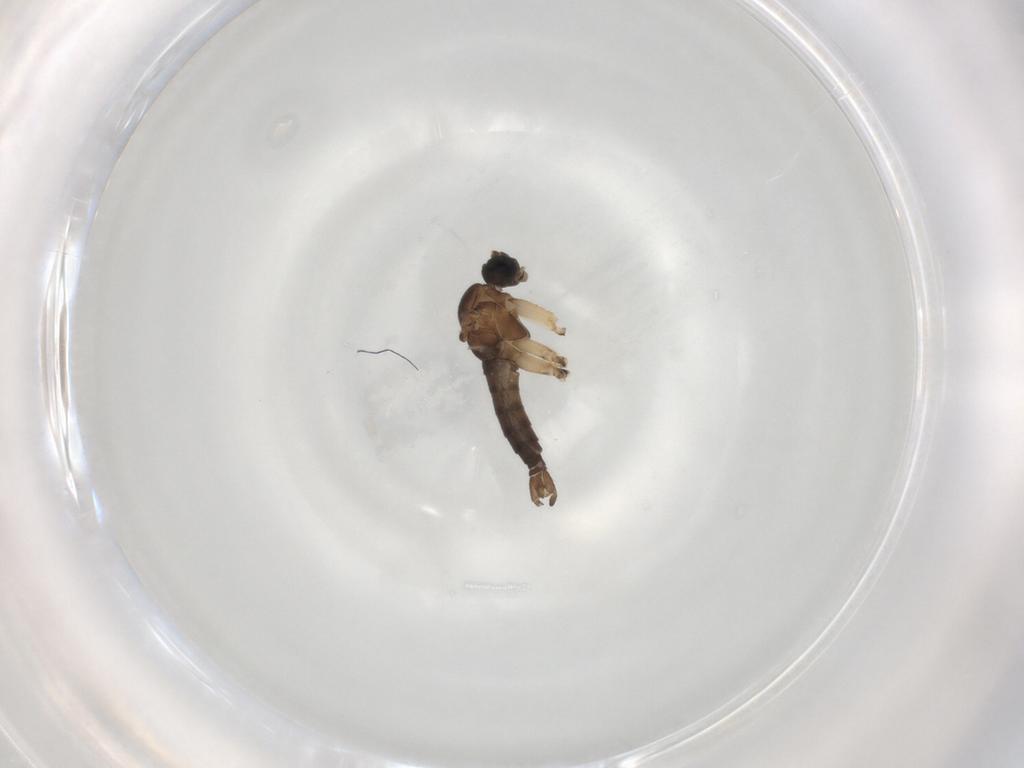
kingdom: Animalia
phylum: Arthropoda
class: Insecta
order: Diptera
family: Sciaridae
